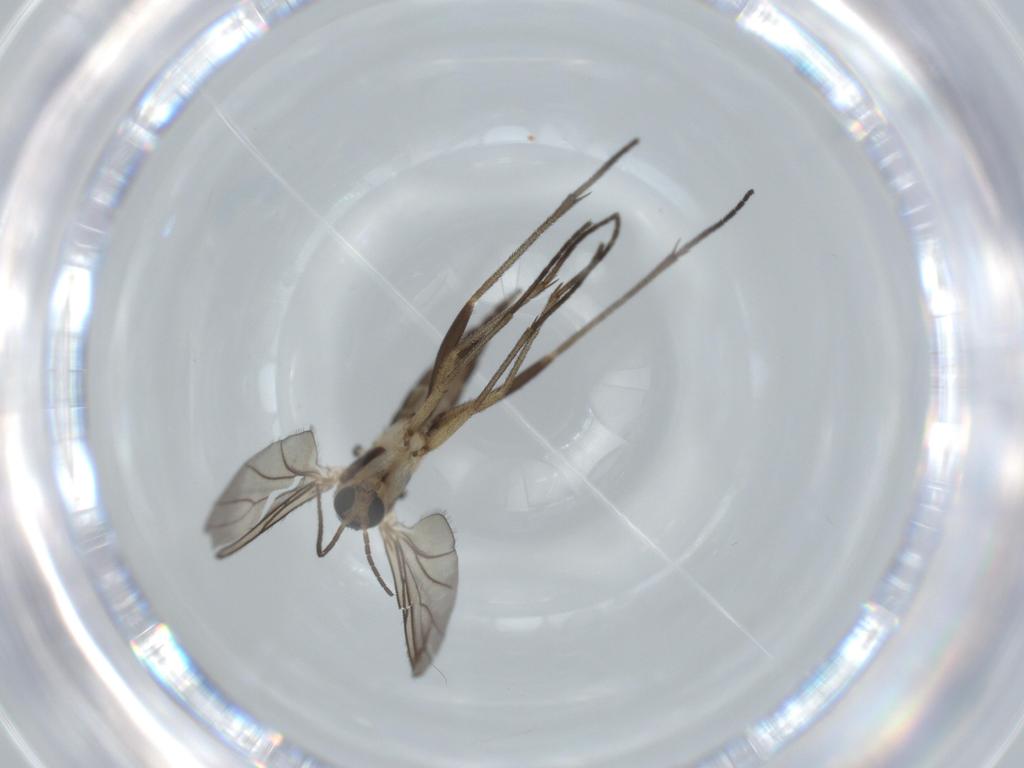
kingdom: Animalia
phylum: Arthropoda
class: Insecta
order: Diptera
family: Sciaridae
